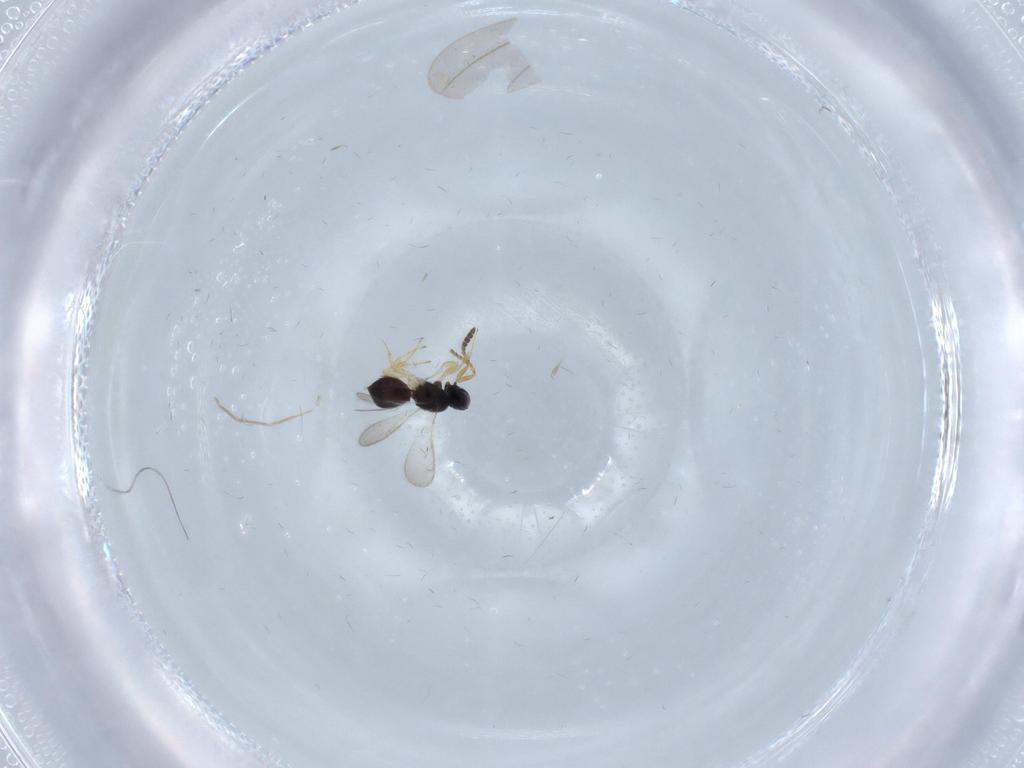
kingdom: Animalia
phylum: Arthropoda
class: Insecta
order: Hymenoptera
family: Scelionidae
